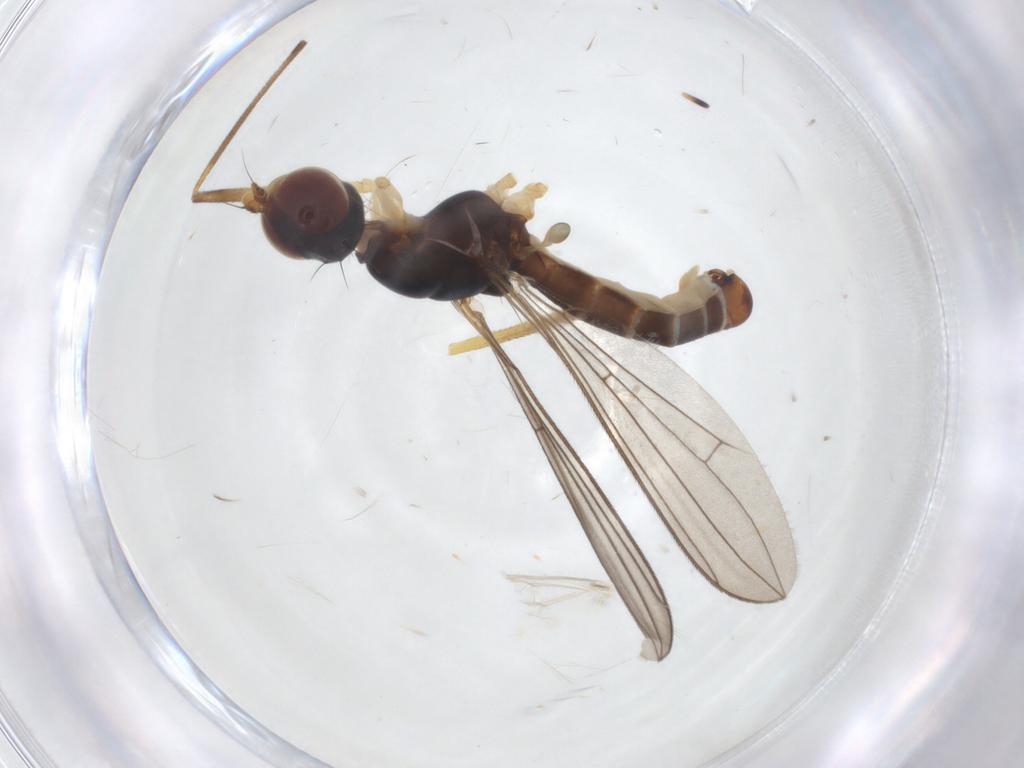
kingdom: Animalia
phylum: Arthropoda
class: Insecta
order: Diptera
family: Micropezidae
